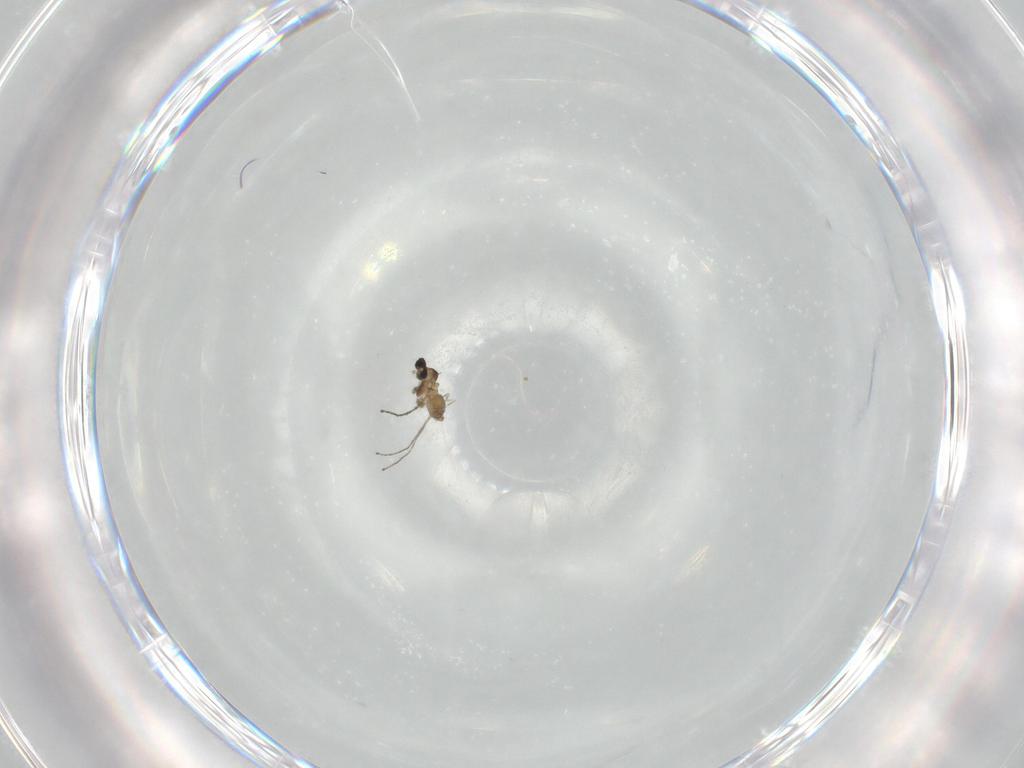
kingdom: Animalia
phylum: Arthropoda
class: Insecta
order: Diptera
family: Cecidomyiidae
